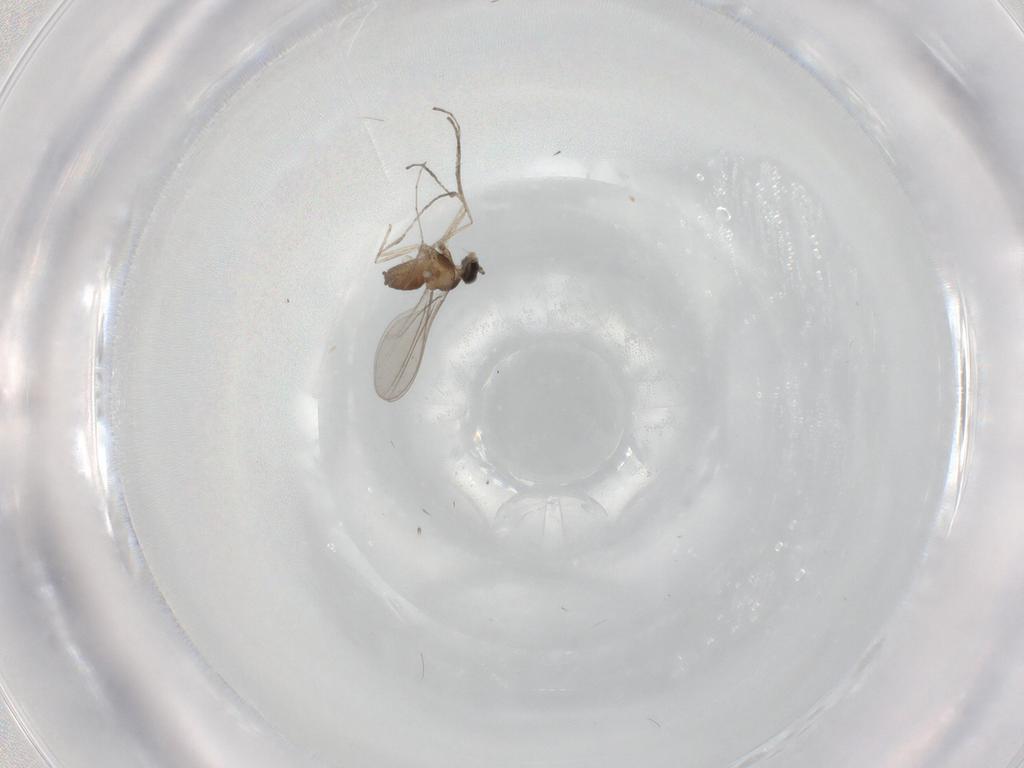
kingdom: Animalia
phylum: Arthropoda
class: Insecta
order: Diptera
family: Cecidomyiidae
